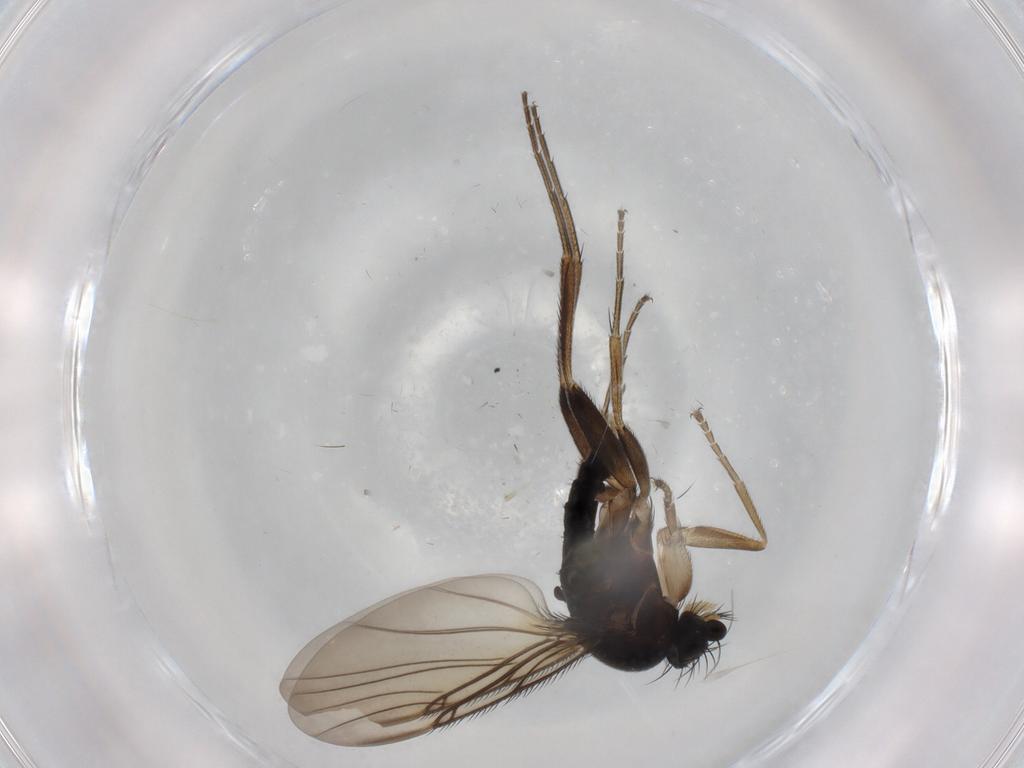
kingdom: Animalia
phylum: Arthropoda
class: Insecta
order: Diptera
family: Phoridae
